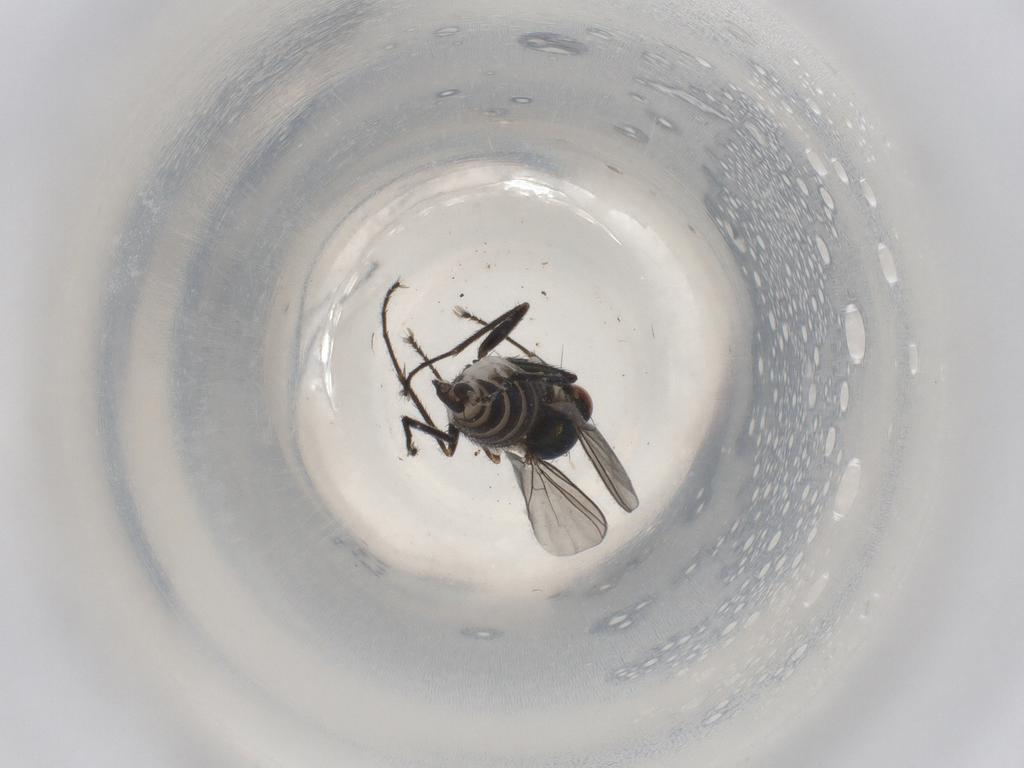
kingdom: Animalia
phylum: Arthropoda
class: Insecta
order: Diptera
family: Dolichopodidae
